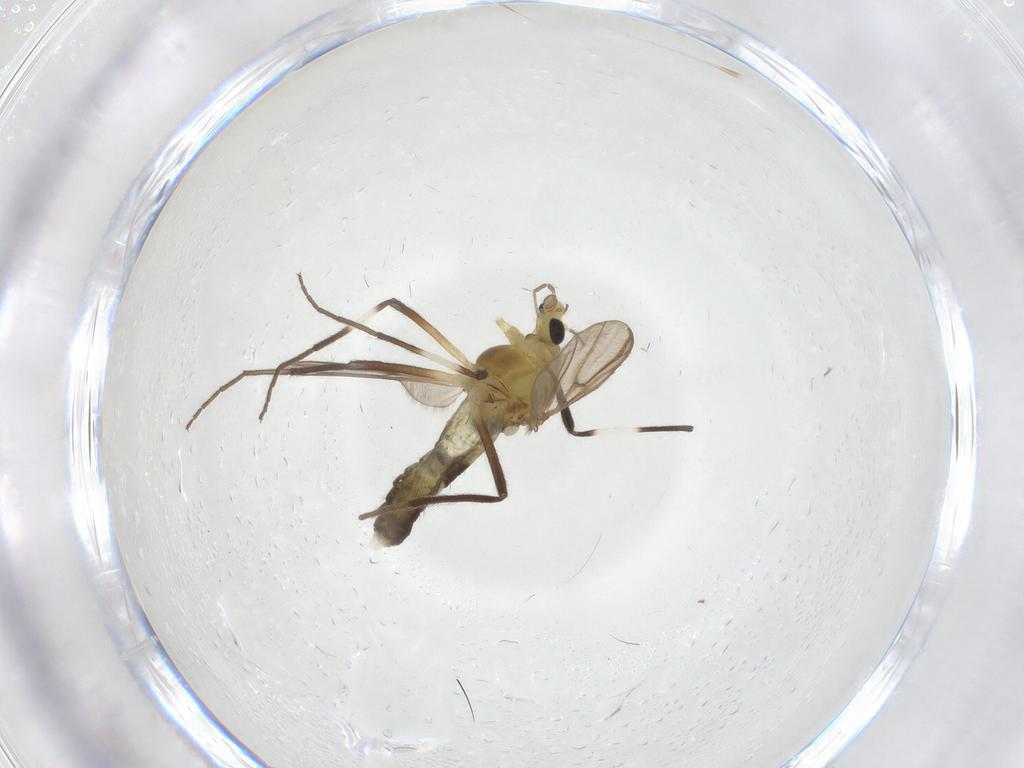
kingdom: Animalia
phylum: Arthropoda
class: Insecta
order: Diptera
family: Chironomidae
